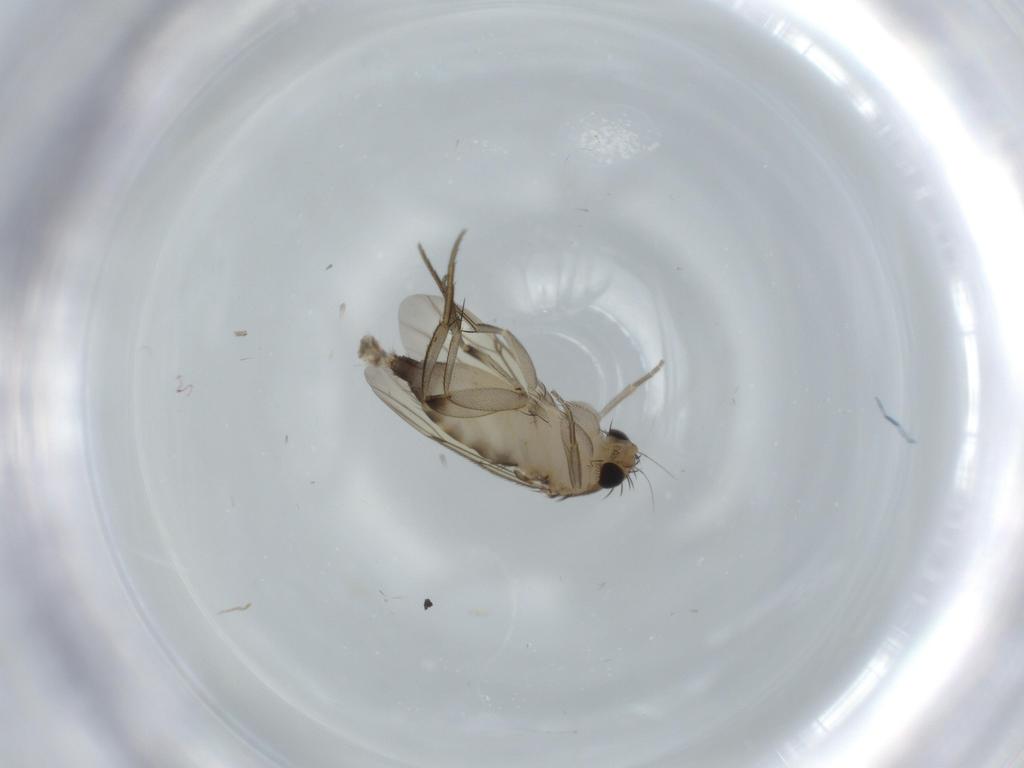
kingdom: Animalia
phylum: Arthropoda
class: Insecta
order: Diptera
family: Phoridae
